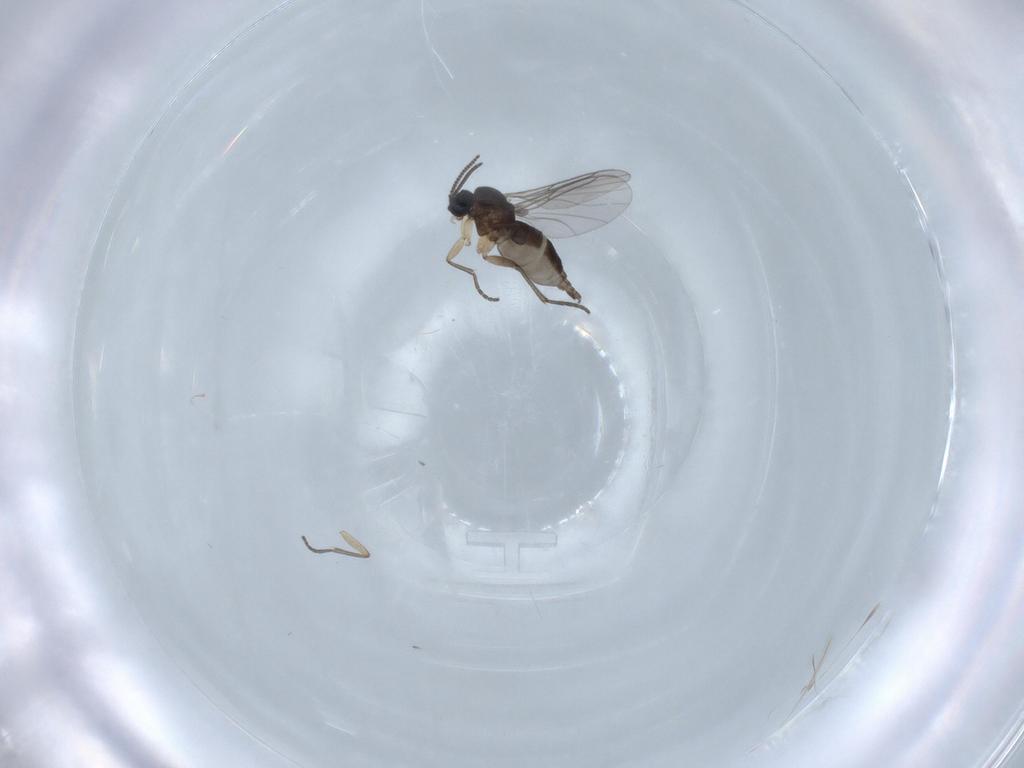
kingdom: Animalia
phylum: Arthropoda
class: Insecta
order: Diptera
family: Sciaridae
